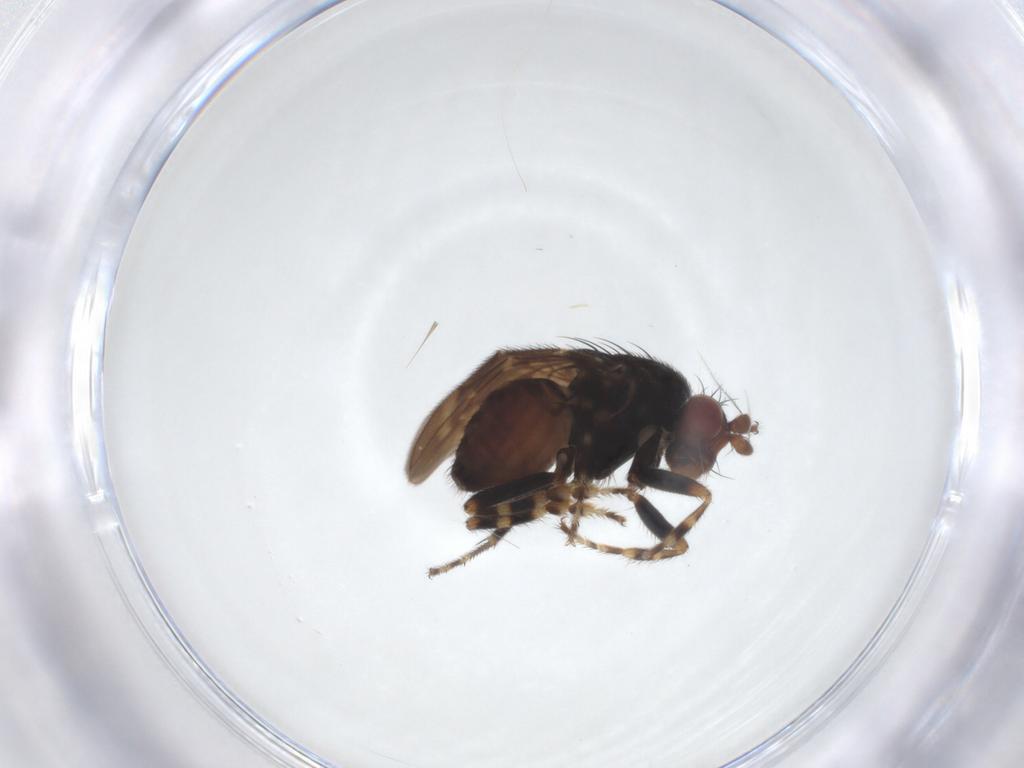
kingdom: Animalia
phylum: Arthropoda
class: Insecta
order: Diptera
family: Sphaeroceridae
